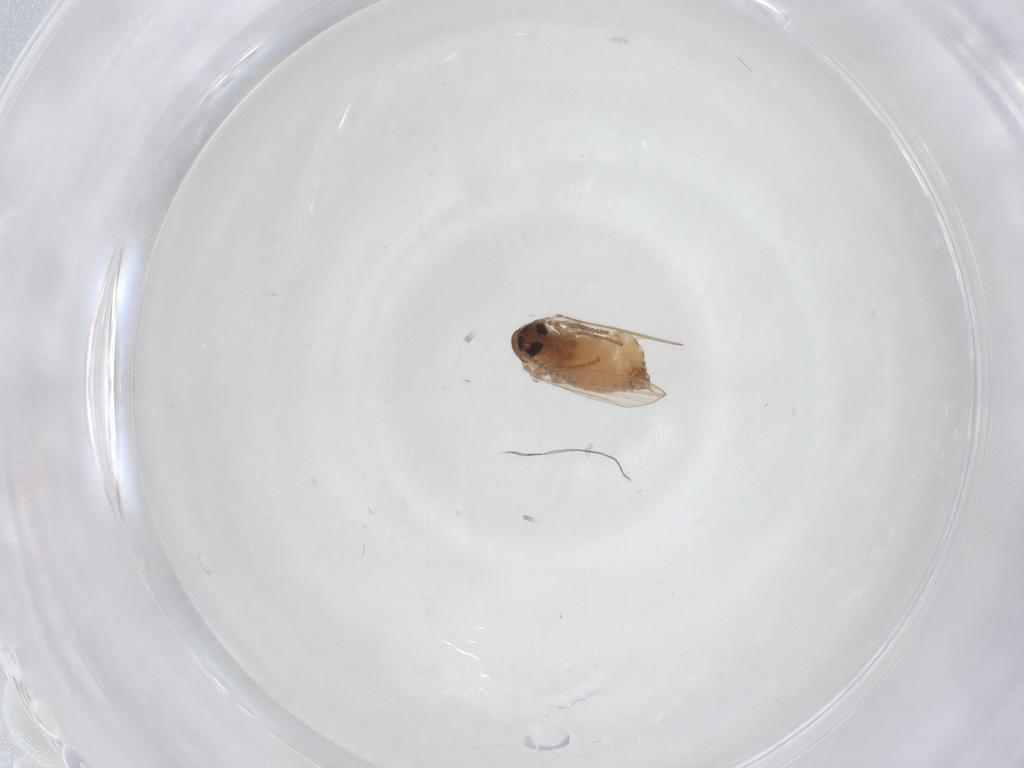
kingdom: Animalia
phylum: Arthropoda
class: Insecta
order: Diptera
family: Psychodidae
